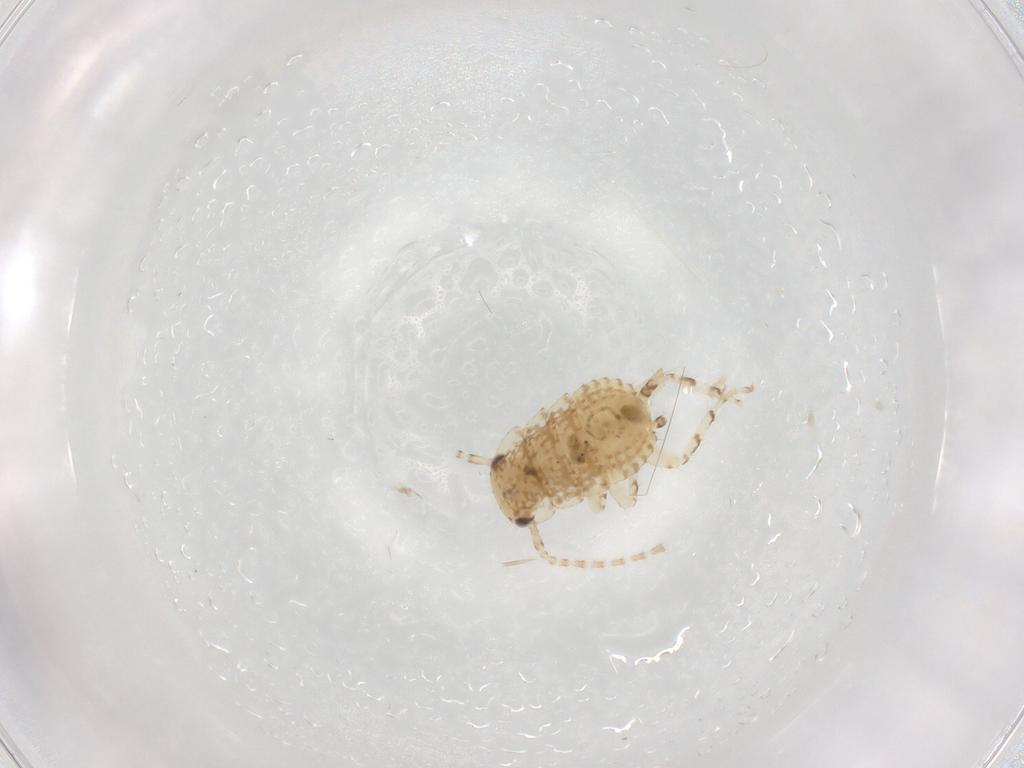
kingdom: Animalia
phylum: Arthropoda
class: Insecta
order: Blattodea
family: Ectobiidae
